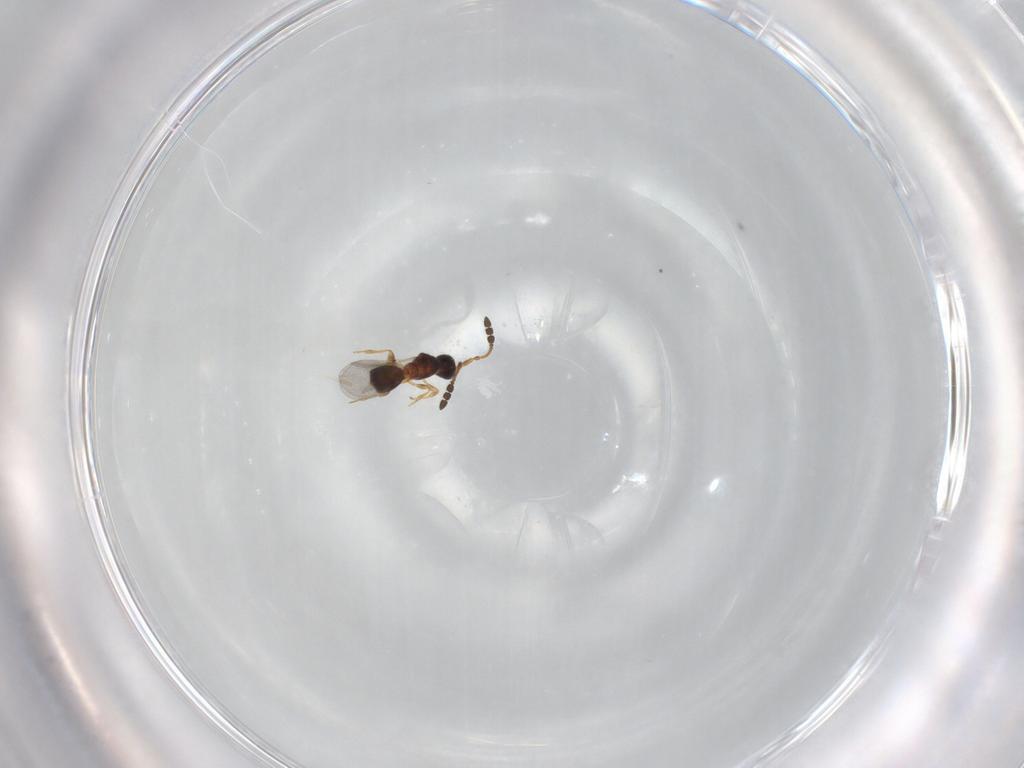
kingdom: Animalia
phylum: Arthropoda
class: Insecta
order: Hymenoptera
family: Diapriidae
